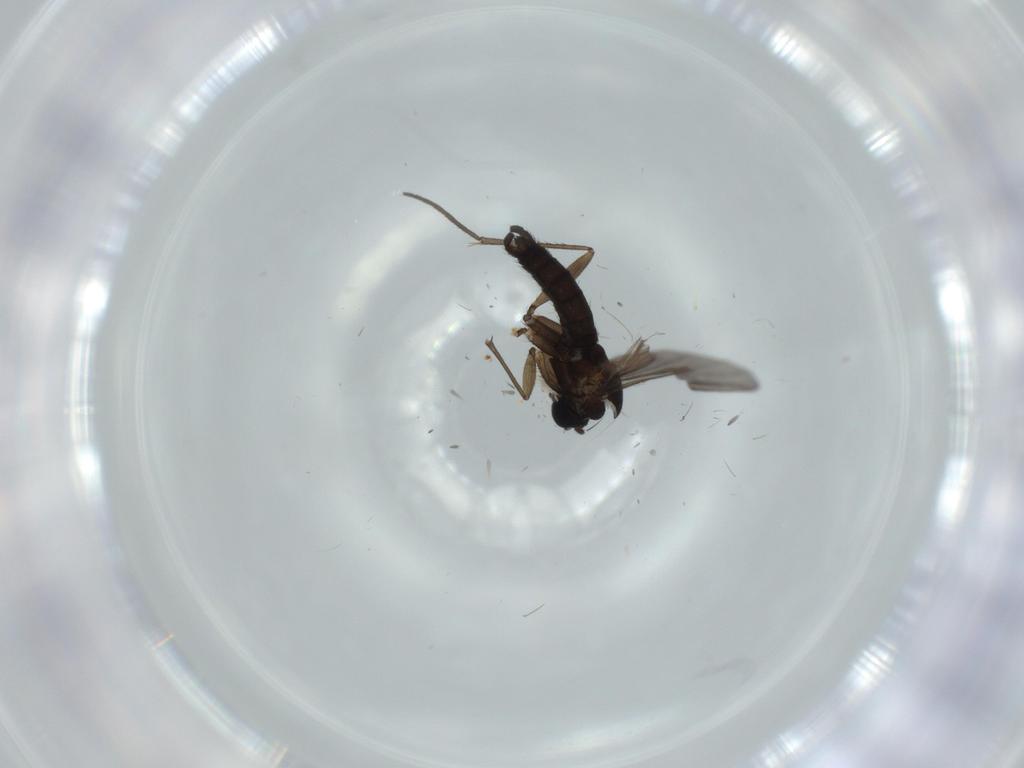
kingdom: Animalia
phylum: Arthropoda
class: Insecta
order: Diptera
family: Sciaridae
